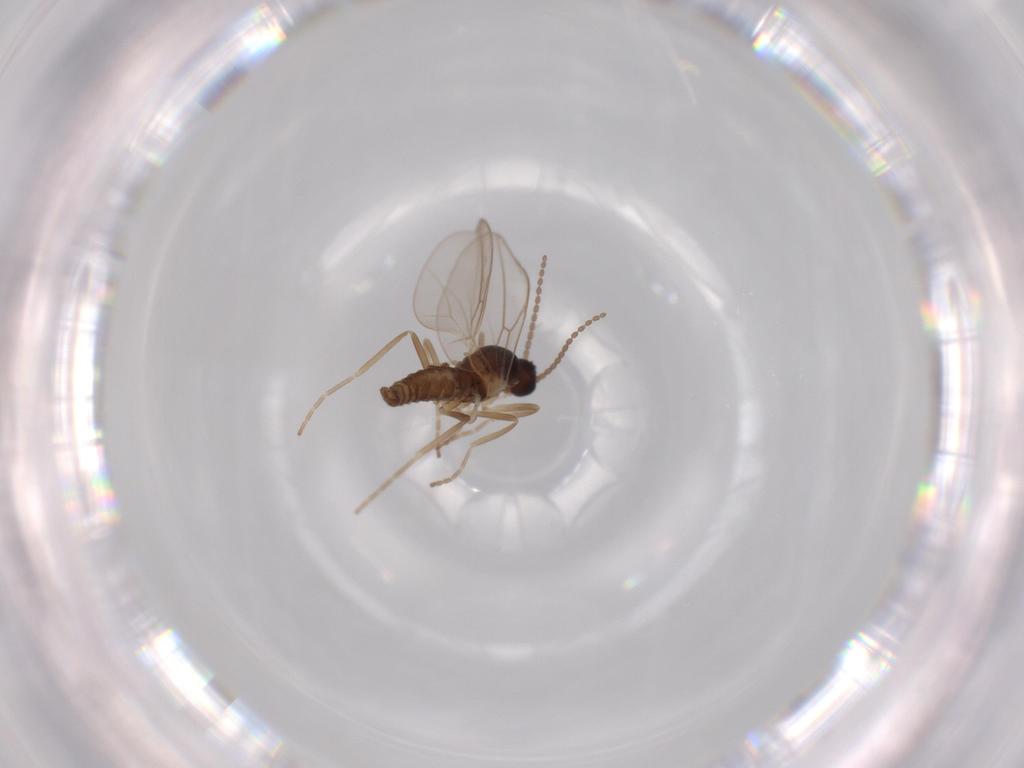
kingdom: Animalia
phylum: Arthropoda
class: Insecta
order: Diptera
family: Cecidomyiidae
